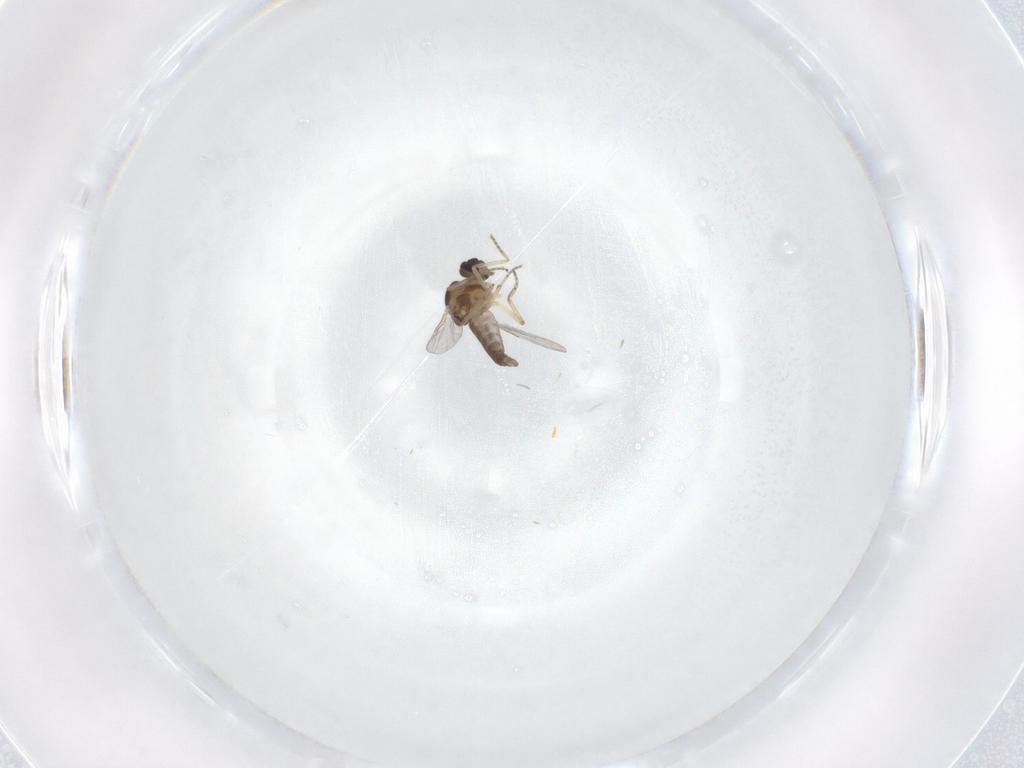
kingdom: Animalia
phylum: Arthropoda
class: Insecta
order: Diptera
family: Ceratopogonidae
